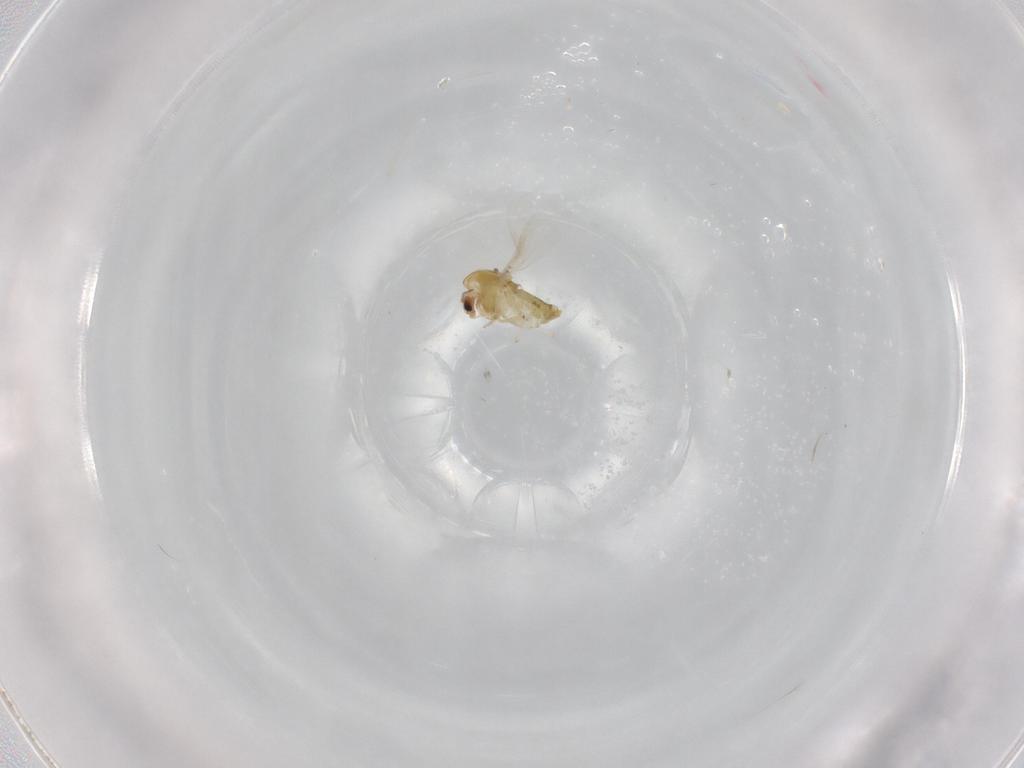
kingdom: Animalia
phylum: Arthropoda
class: Insecta
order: Diptera
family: Chironomidae
